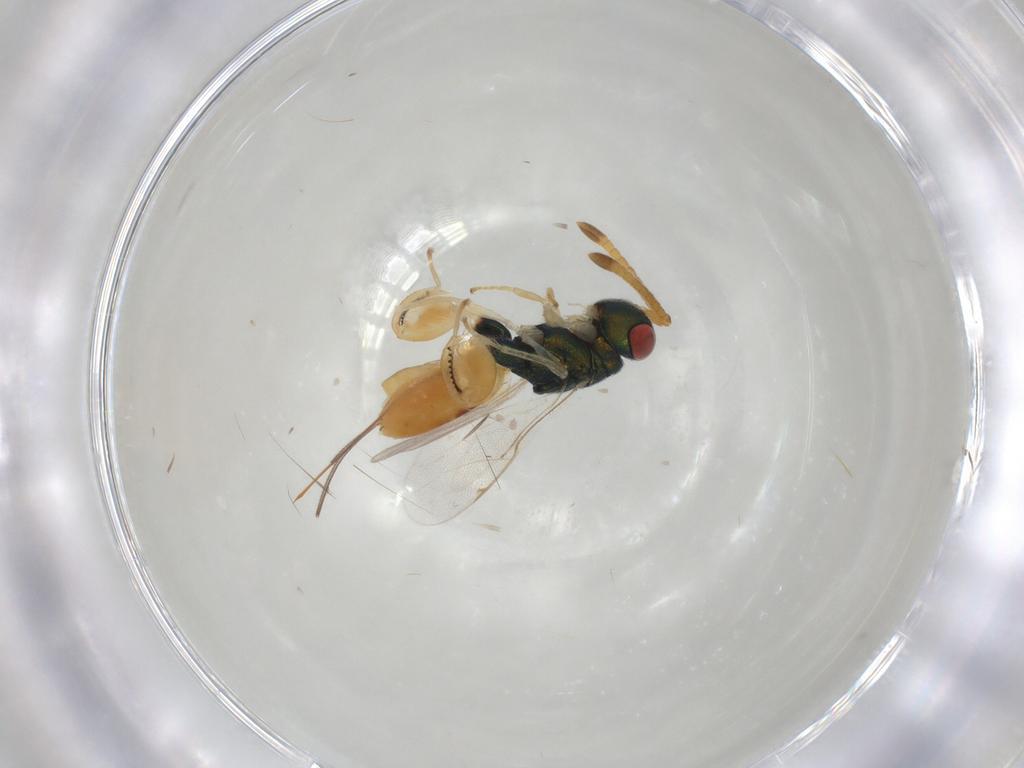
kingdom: Animalia
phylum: Arthropoda
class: Insecta
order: Hymenoptera
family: Torymidae
